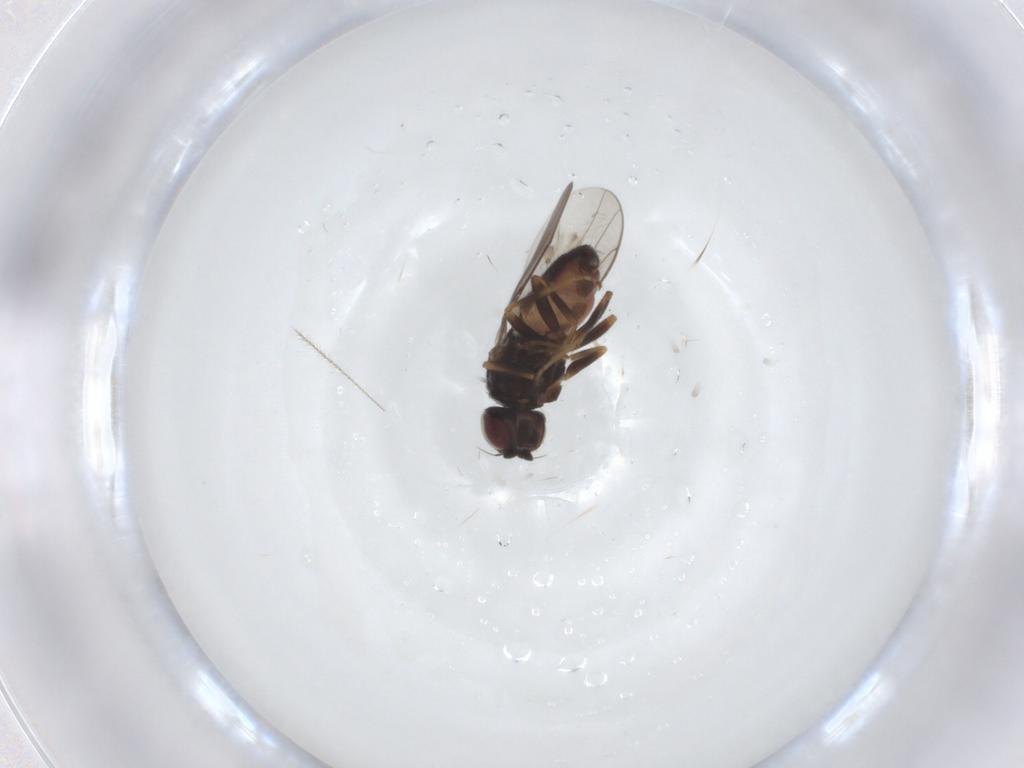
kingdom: Animalia
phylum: Arthropoda
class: Insecta
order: Diptera
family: Chloropidae
